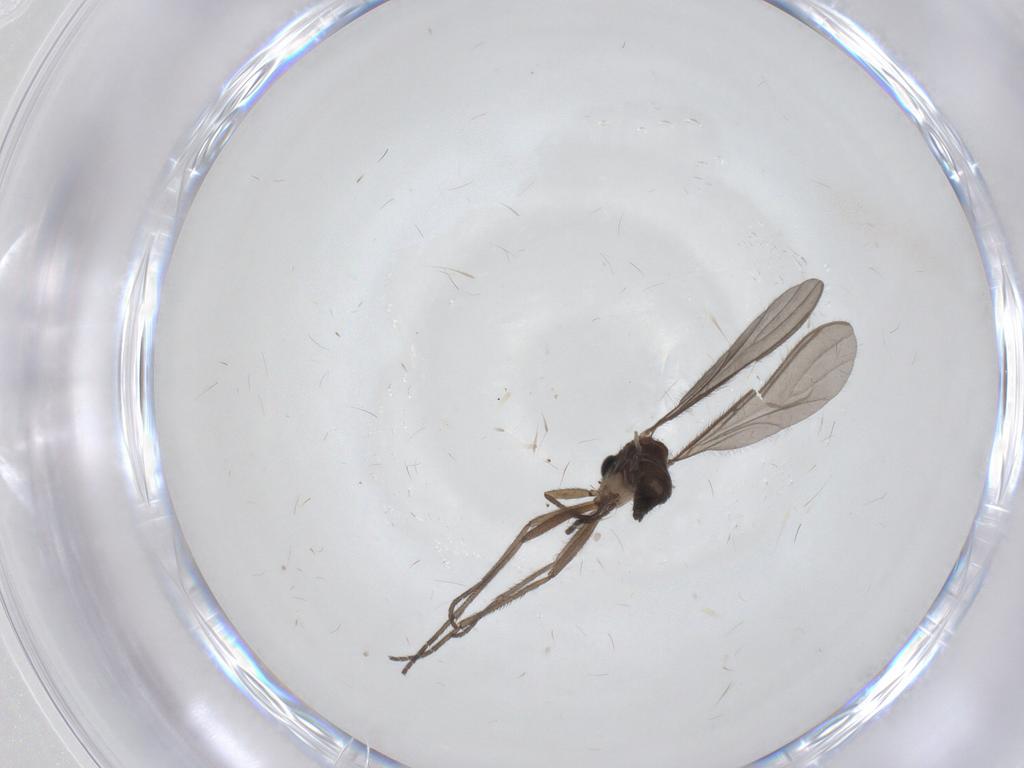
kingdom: Animalia
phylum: Arthropoda
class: Insecta
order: Diptera
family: Sciaridae
